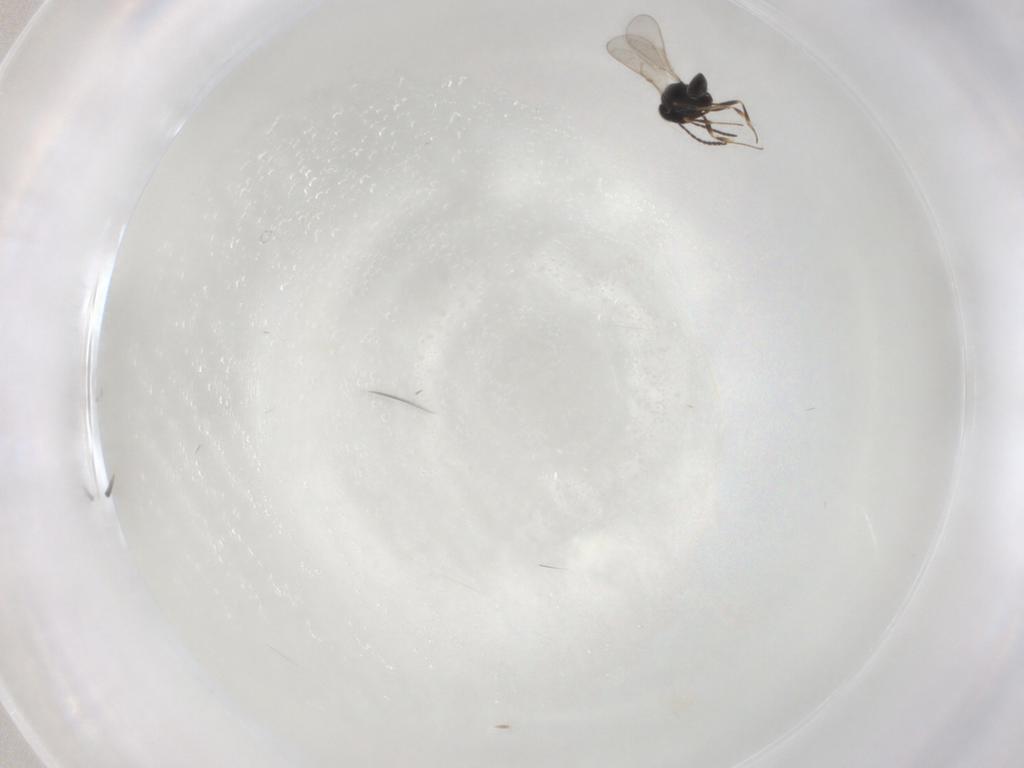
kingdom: Animalia
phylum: Arthropoda
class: Insecta
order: Hymenoptera
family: Scelionidae
